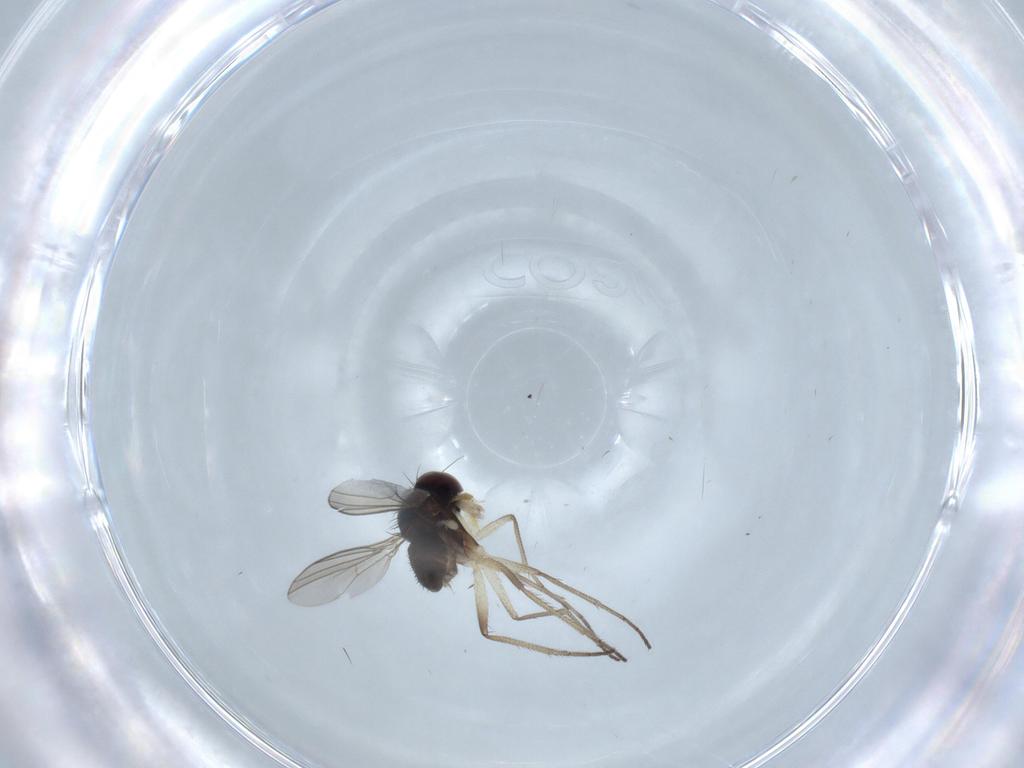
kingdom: Animalia
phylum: Arthropoda
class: Insecta
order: Diptera
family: Dolichopodidae
